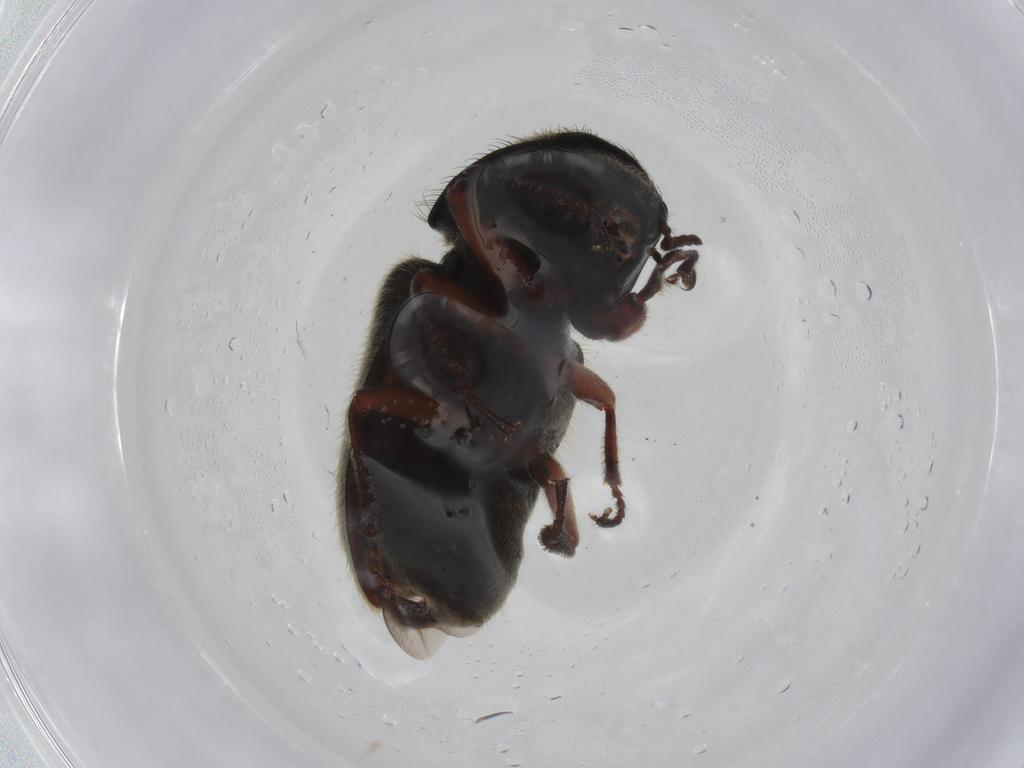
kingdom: Animalia
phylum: Arthropoda
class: Insecta
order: Coleoptera
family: Melyridae
